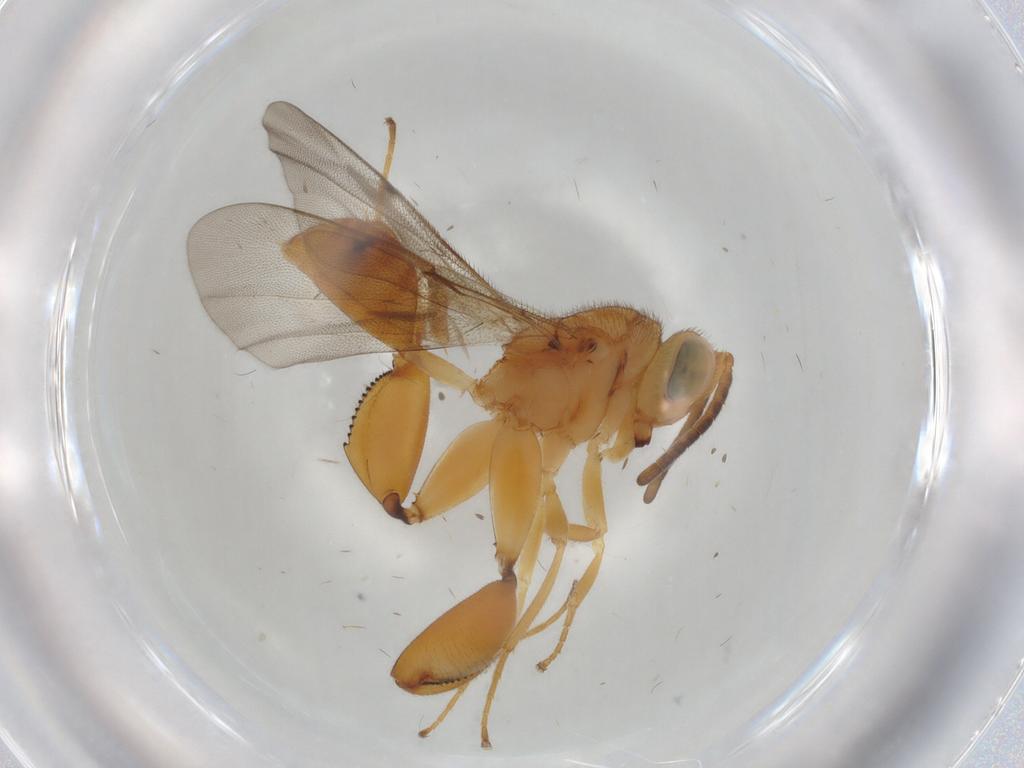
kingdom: Animalia
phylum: Arthropoda
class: Insecta
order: Hymenoptera
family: Chalcididae
